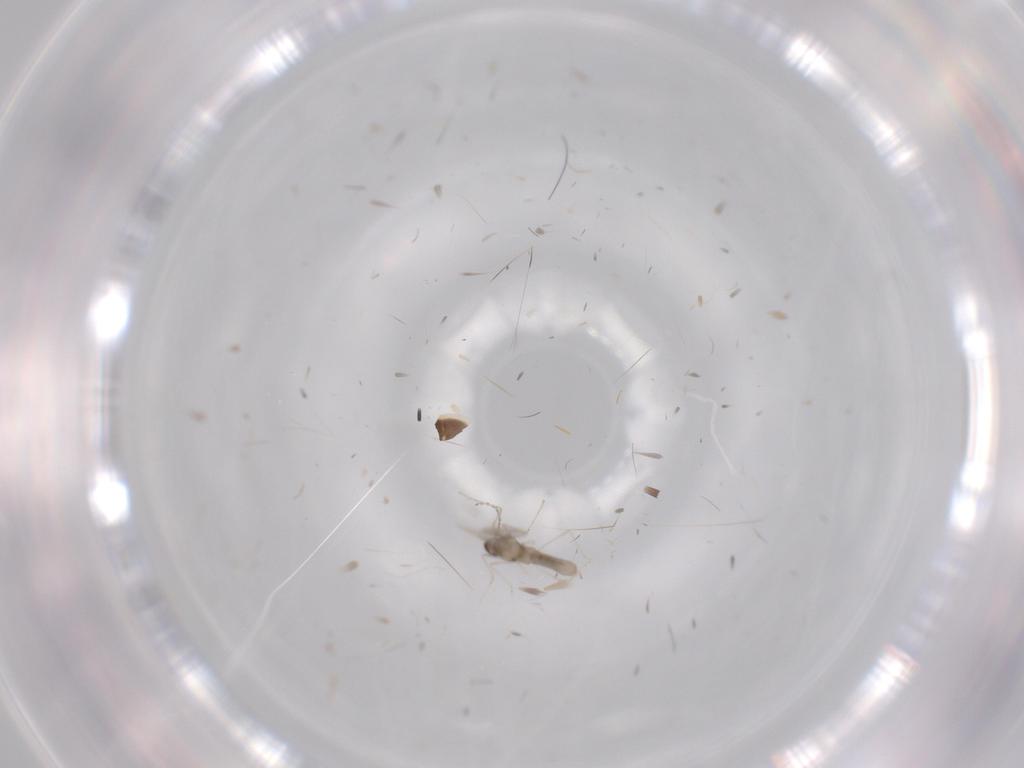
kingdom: Animalia
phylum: Arthropoda
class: Insecta
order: Diptera
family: Cecidomyiidae
